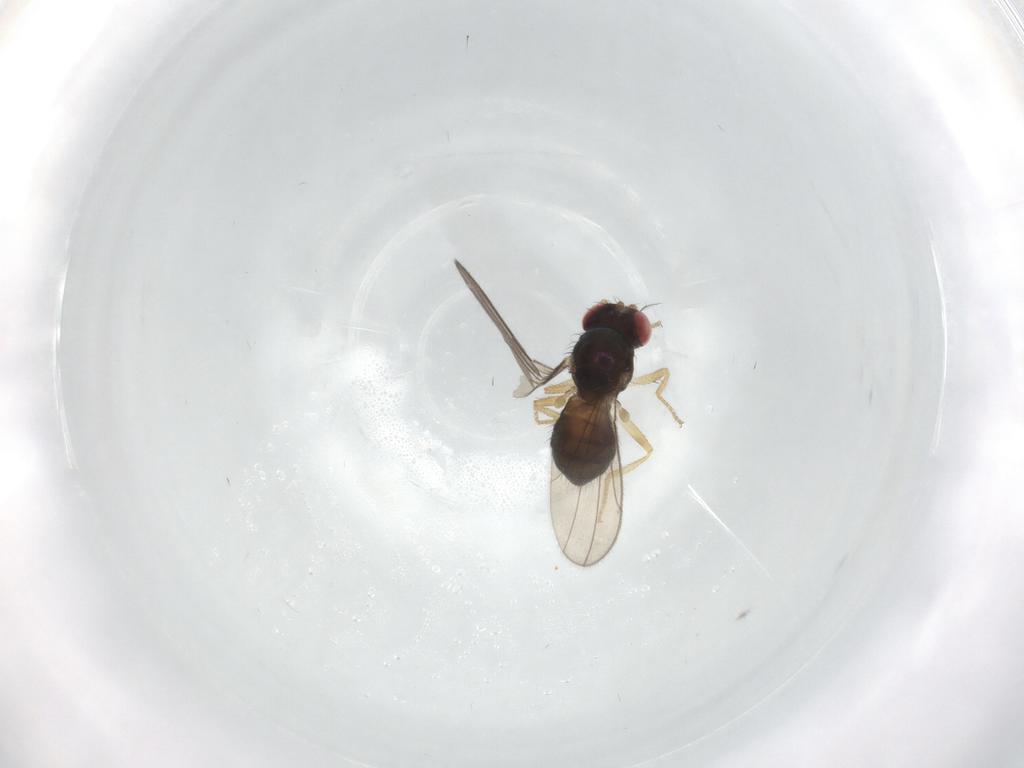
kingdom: Animalia
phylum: Arthropoda
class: Insecta
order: Diptera
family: Drosophilidae
